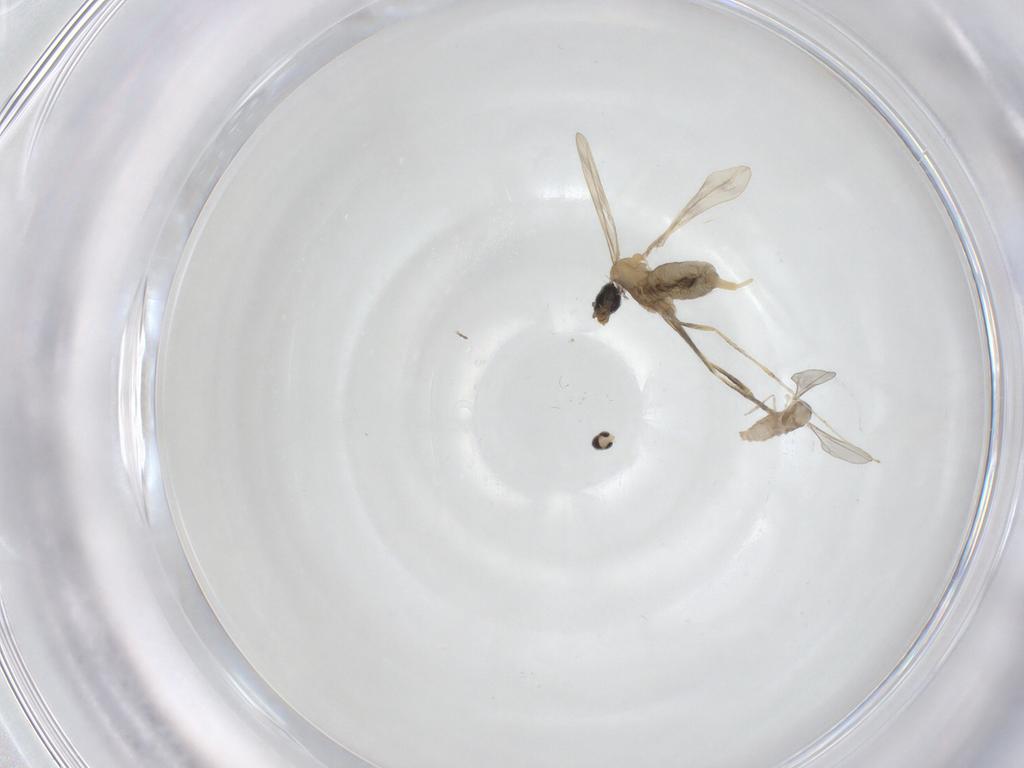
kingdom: Animalia
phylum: Arthropoda
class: Insecta
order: Diptera
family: Cecidomyiidae
